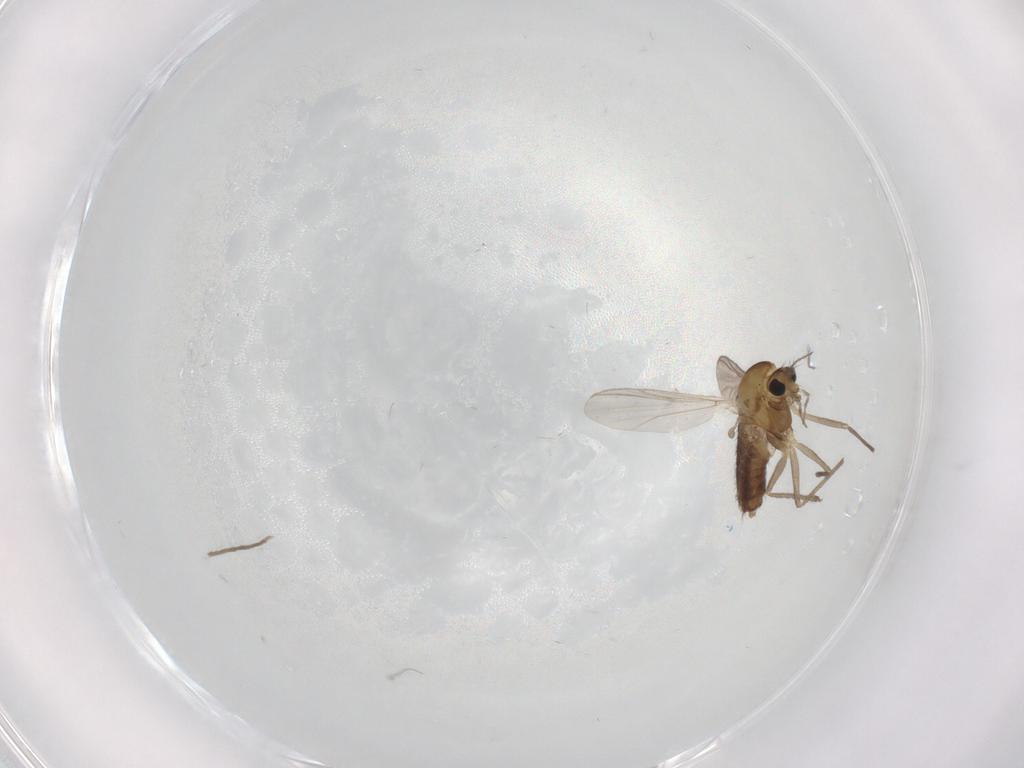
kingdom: Animalia
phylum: Arthropoda
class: Insecta
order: Diptera
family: Chironomidae
